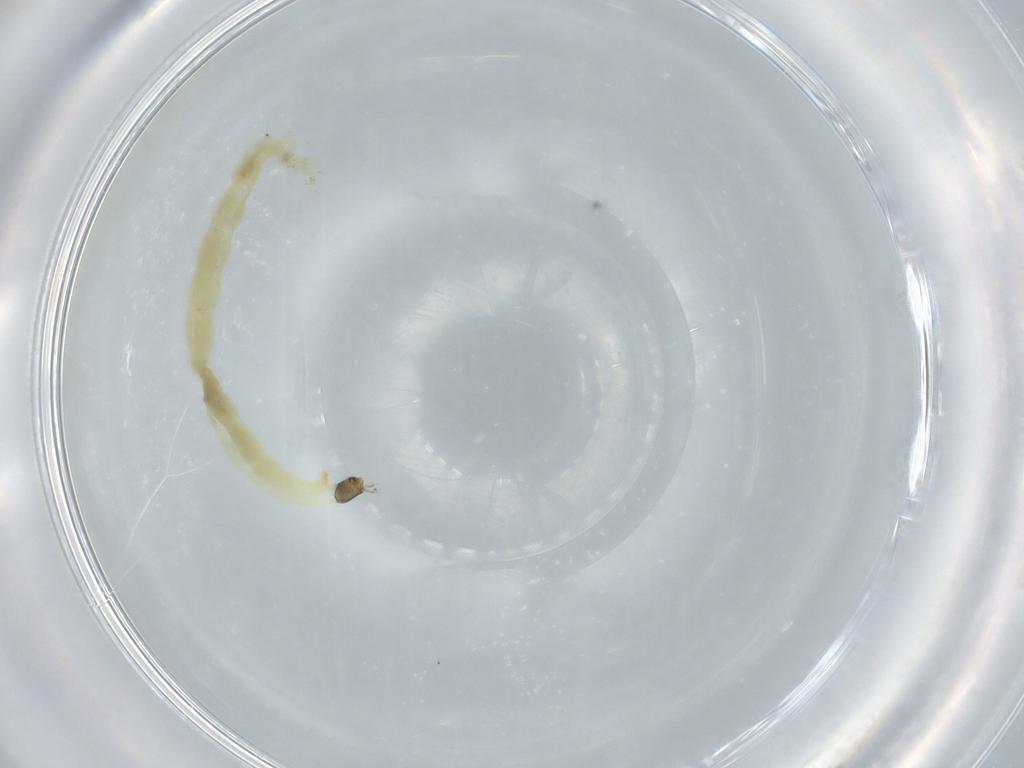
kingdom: Animalia
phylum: Arthropoda
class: Insecta
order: Diptera
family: Chironomidae
